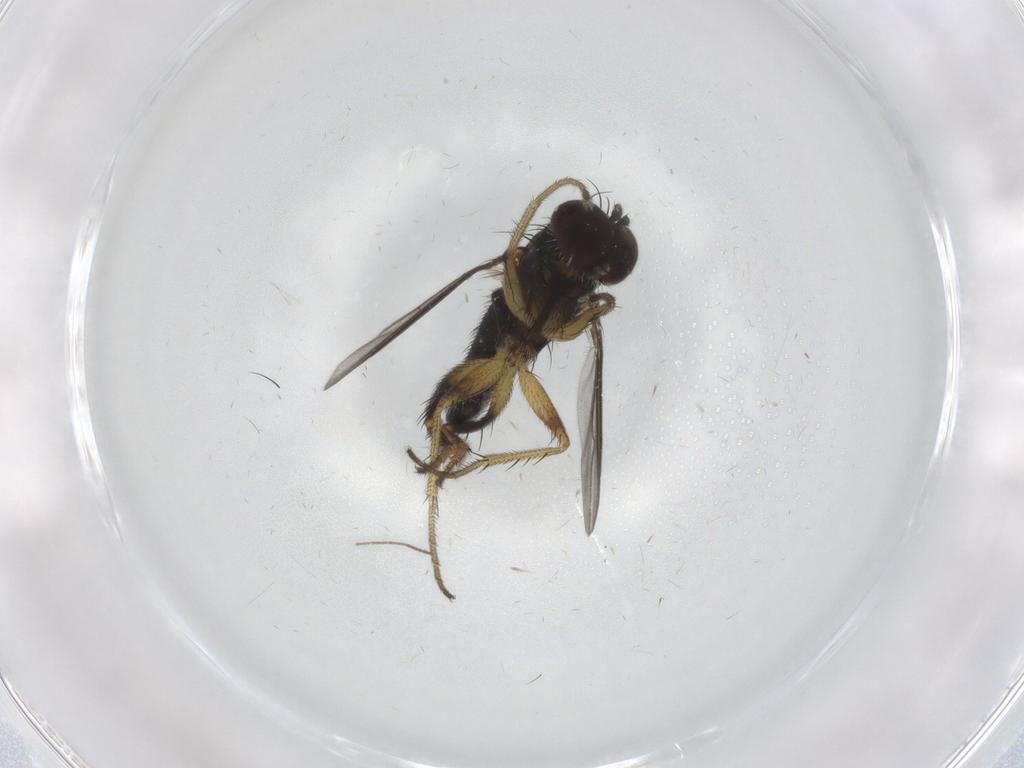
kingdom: Animalia
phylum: Arthropoda
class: Insecta
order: Diptera
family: Dolichopodidae
